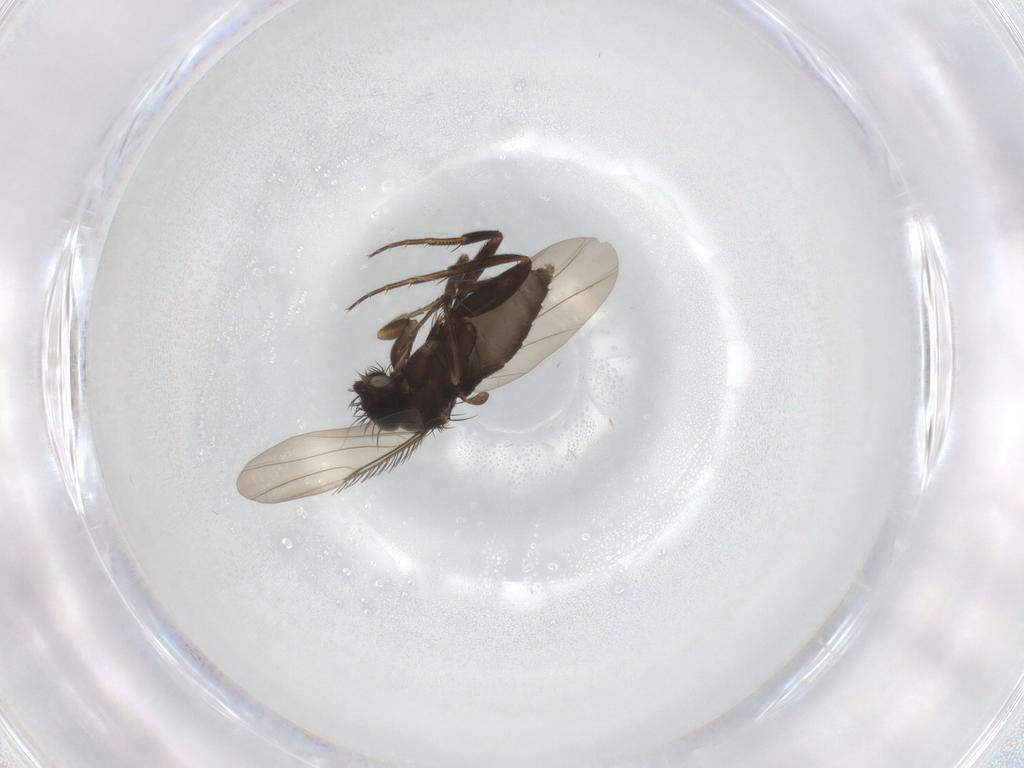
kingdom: Animalia
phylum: Arthropoda
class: Insecta
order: Diptera
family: Phoridae
